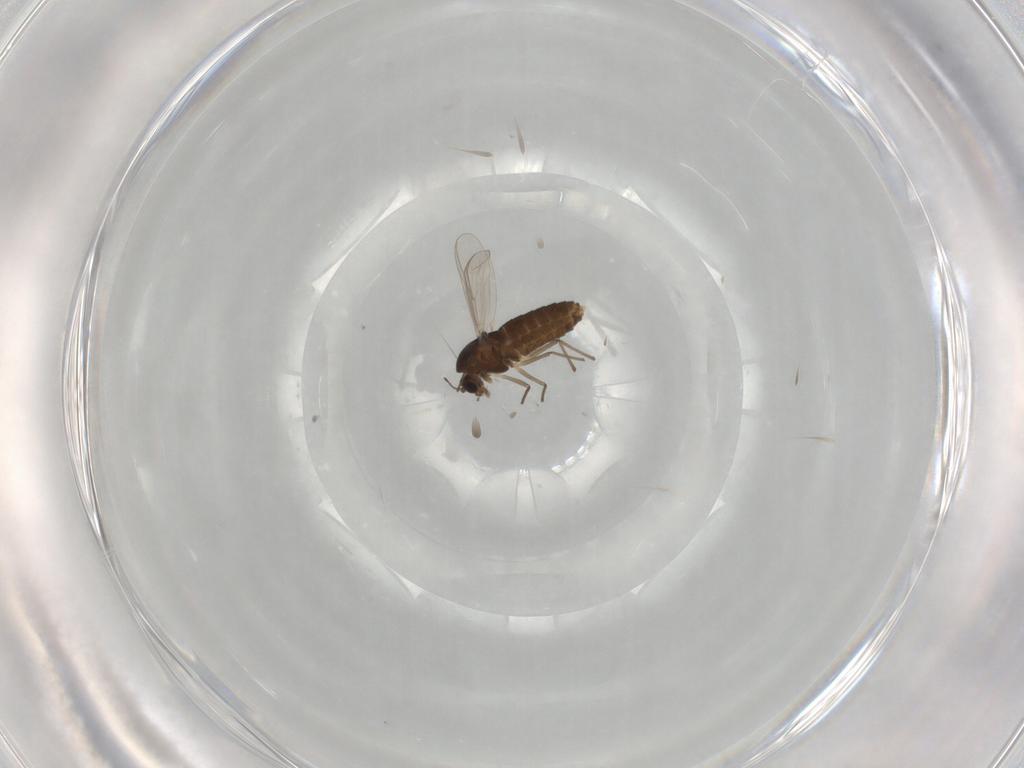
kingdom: Animalia
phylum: Arthropoda
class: Insecta
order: Diptera
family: Chironomidae
